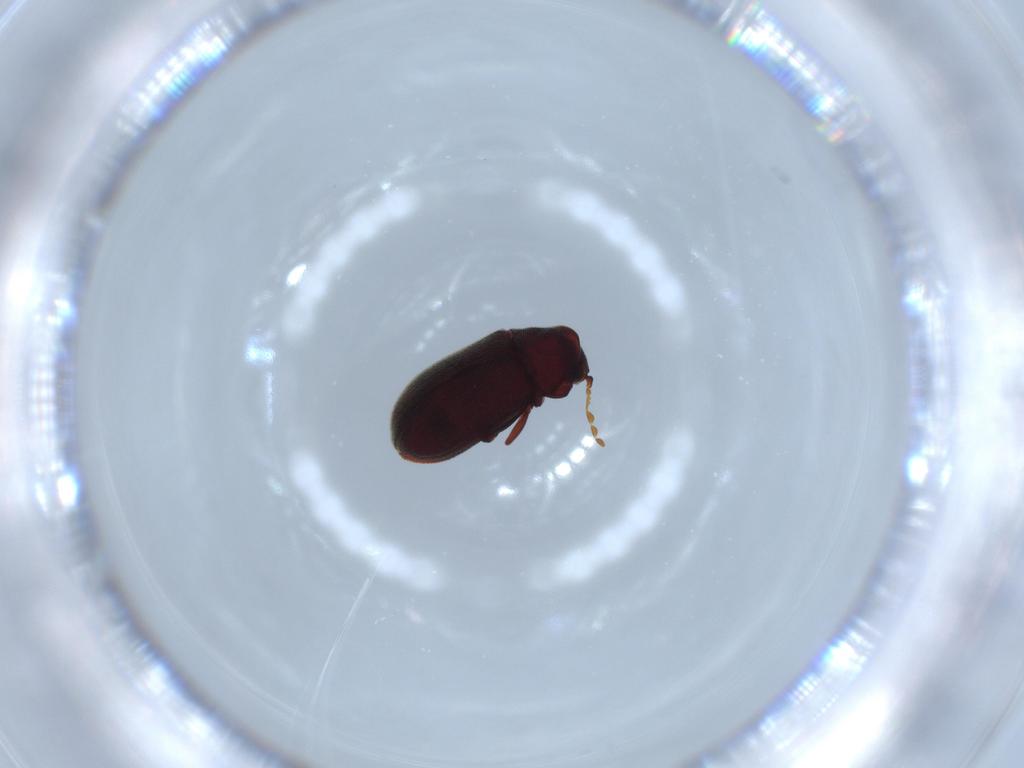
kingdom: Animalia
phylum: Arthropoda
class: Insecta
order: Coleoptera
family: Anobiidae
